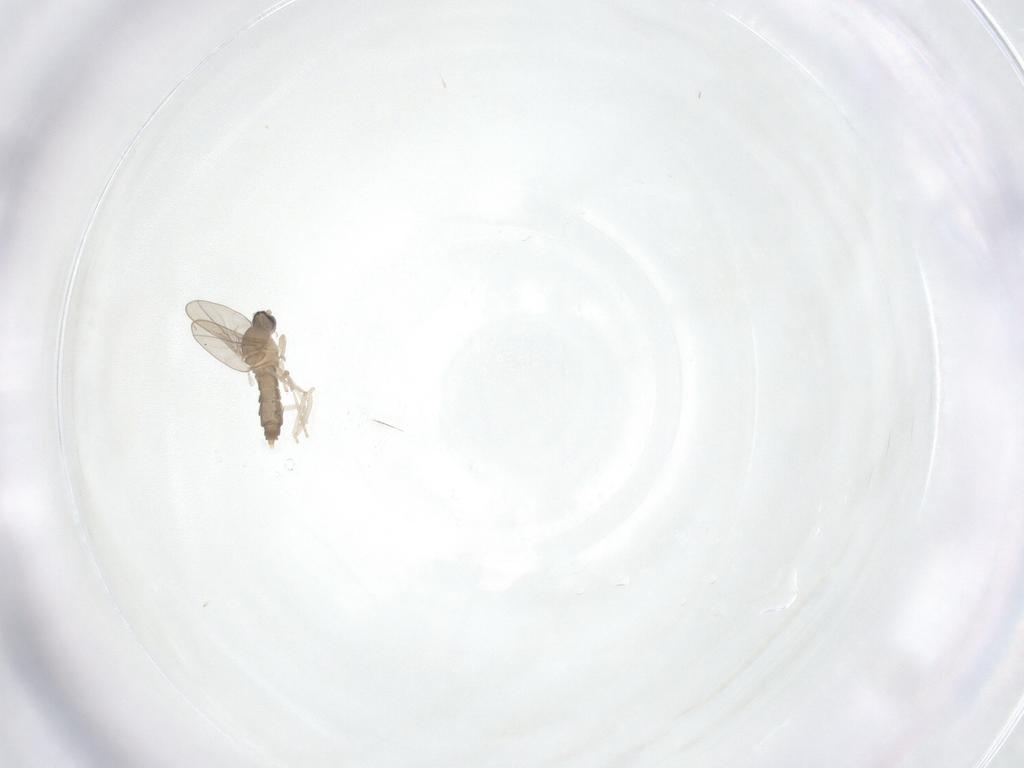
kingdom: Animalia
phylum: Arthropoda
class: Insecta
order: Diptera
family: Cecidomyiidae
